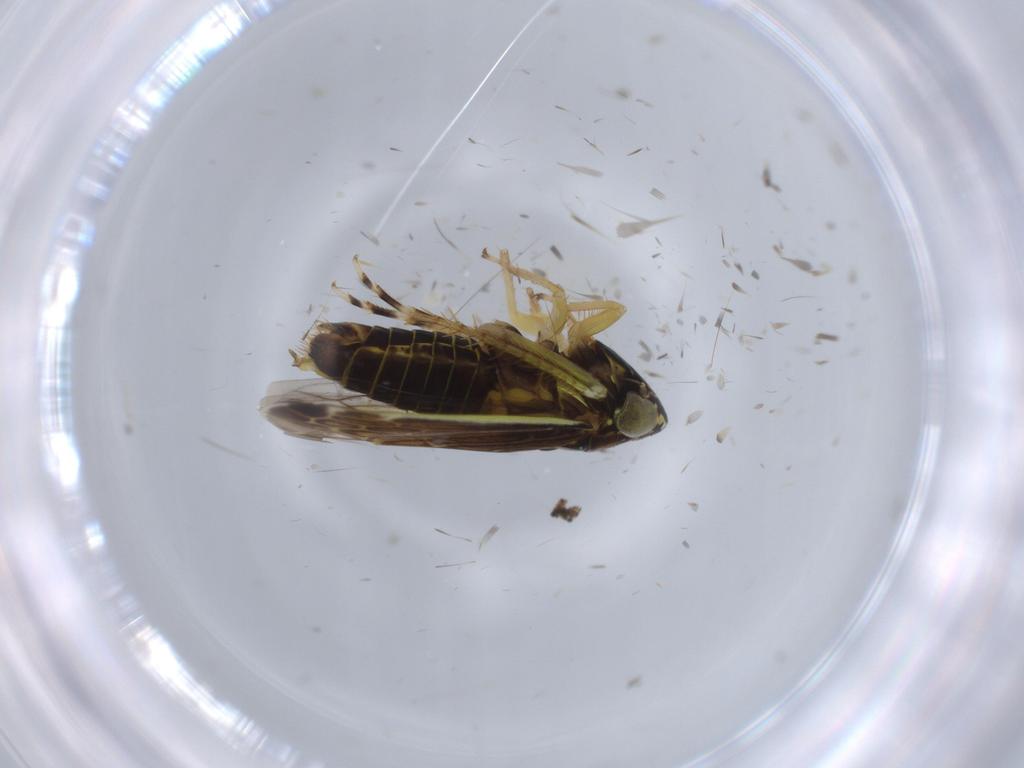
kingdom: Animalia
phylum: Arthropoda
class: Insecta
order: Hemiptera
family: Cicadellidae
